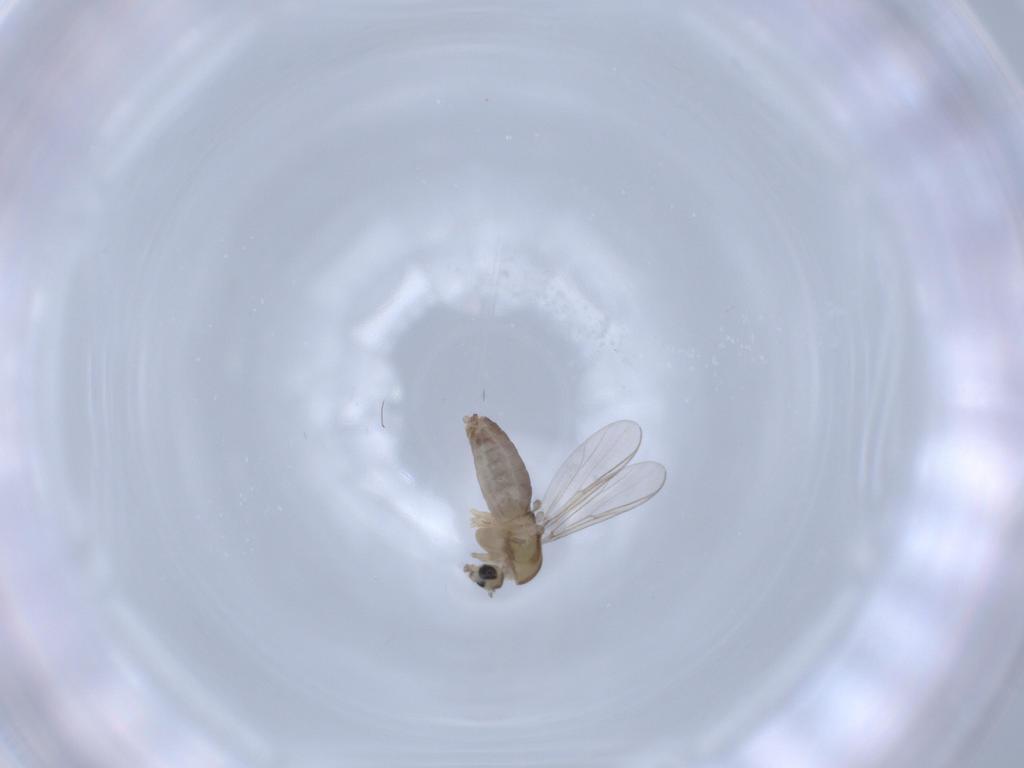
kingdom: Animalia
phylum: Arthropoda
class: Insecta
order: Diptera
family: Chironomidae
